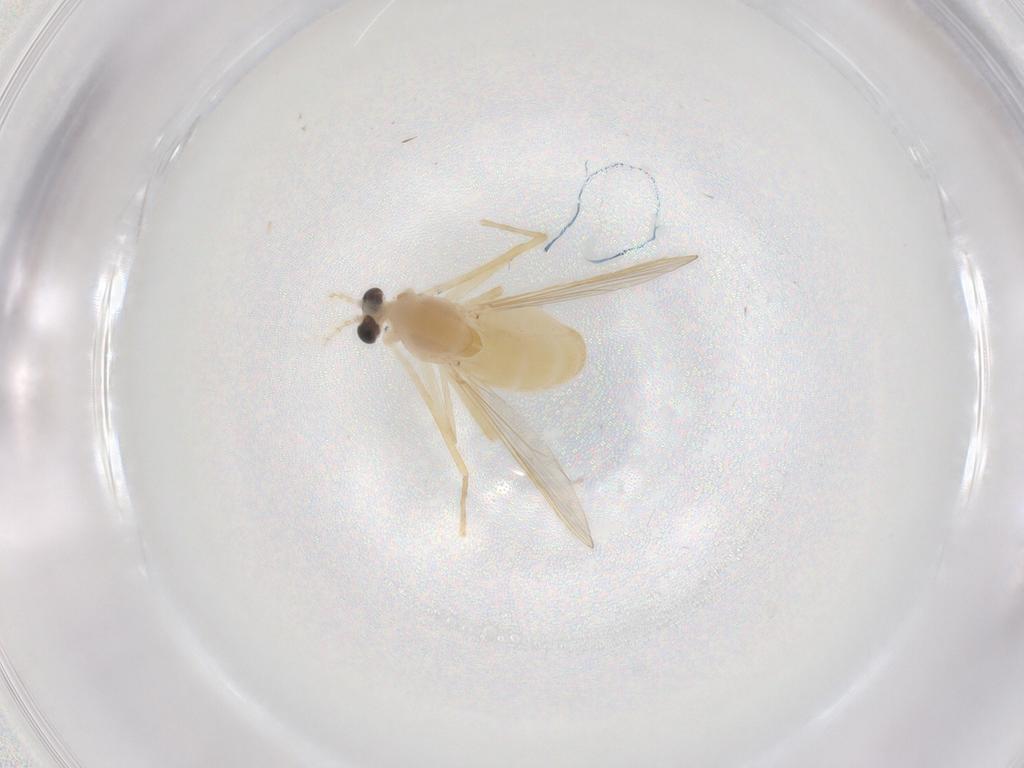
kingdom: Animalia
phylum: Arthropoda
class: Insecta
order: Diptera
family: Chironomidae
